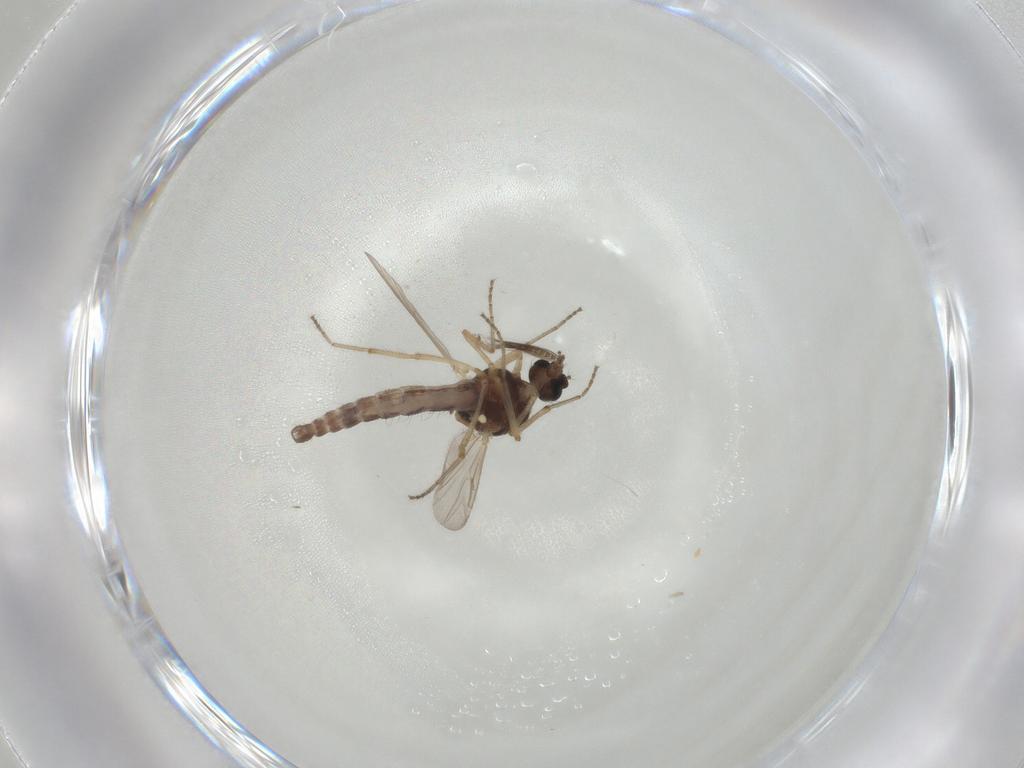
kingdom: Animalia
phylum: Arthropoda
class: Insecta
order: Diptera
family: Ceratopogonidae
